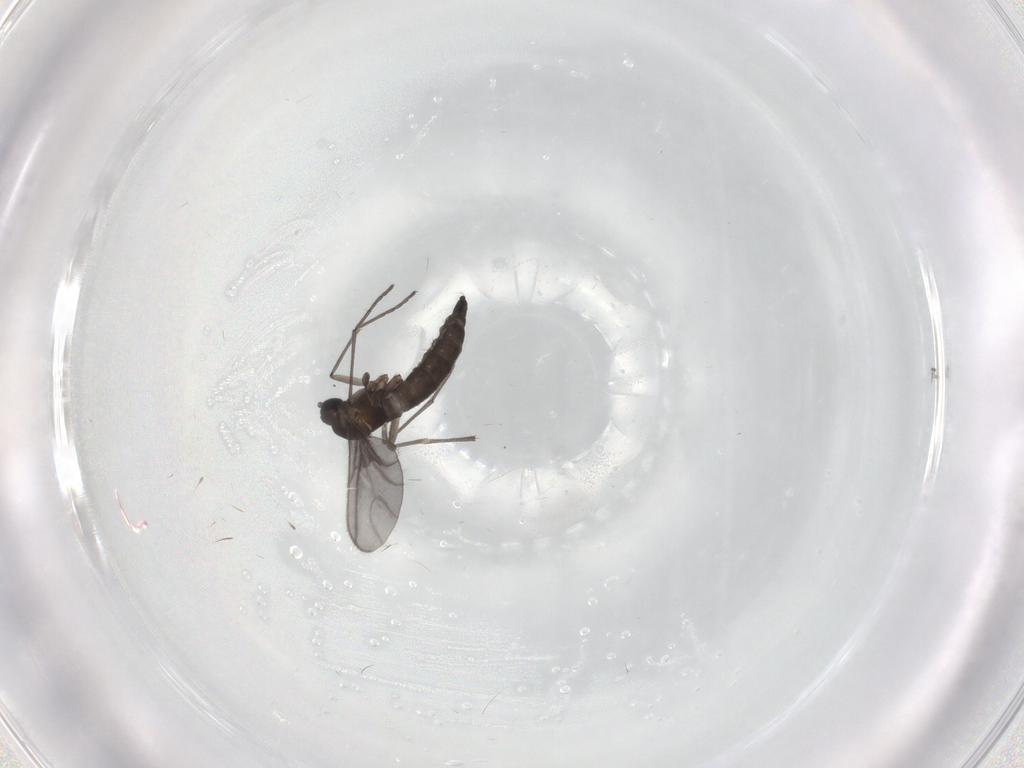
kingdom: Animalia
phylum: Arthropoda
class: Insecta
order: Diptera
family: Sciaridae
